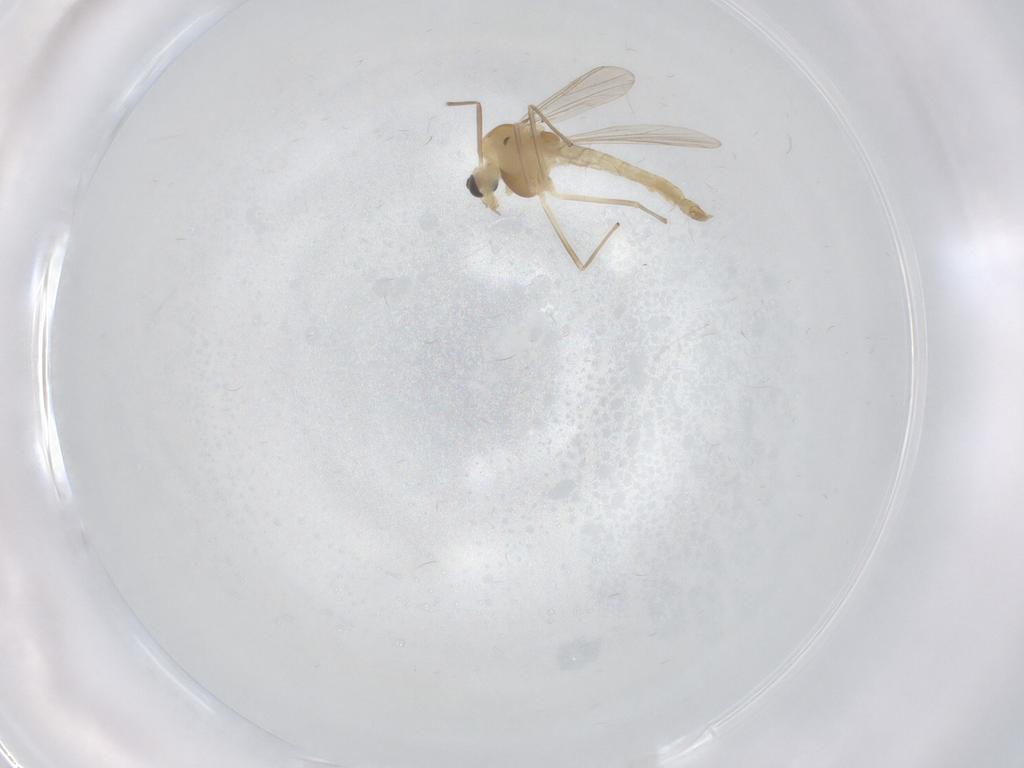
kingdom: Animalia
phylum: Arthropoda
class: Insecta
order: Diptera
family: Chironomidae
